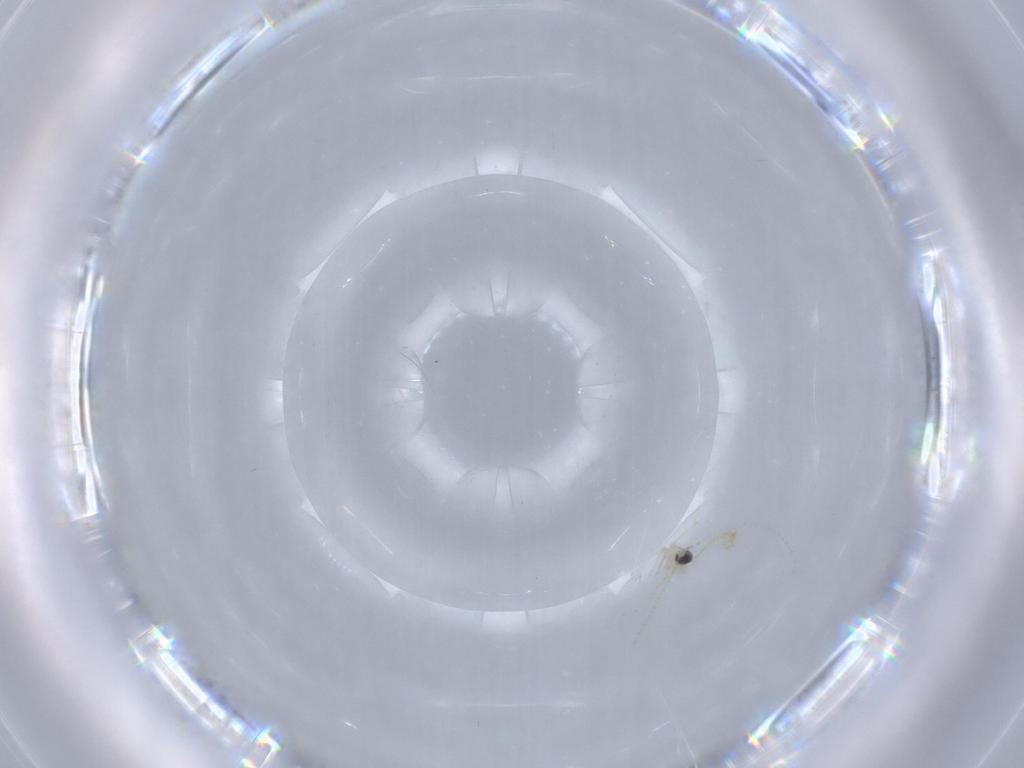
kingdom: Animalia
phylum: Arthropoda
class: Insecta
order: Diptera
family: Cecidomyiidae
